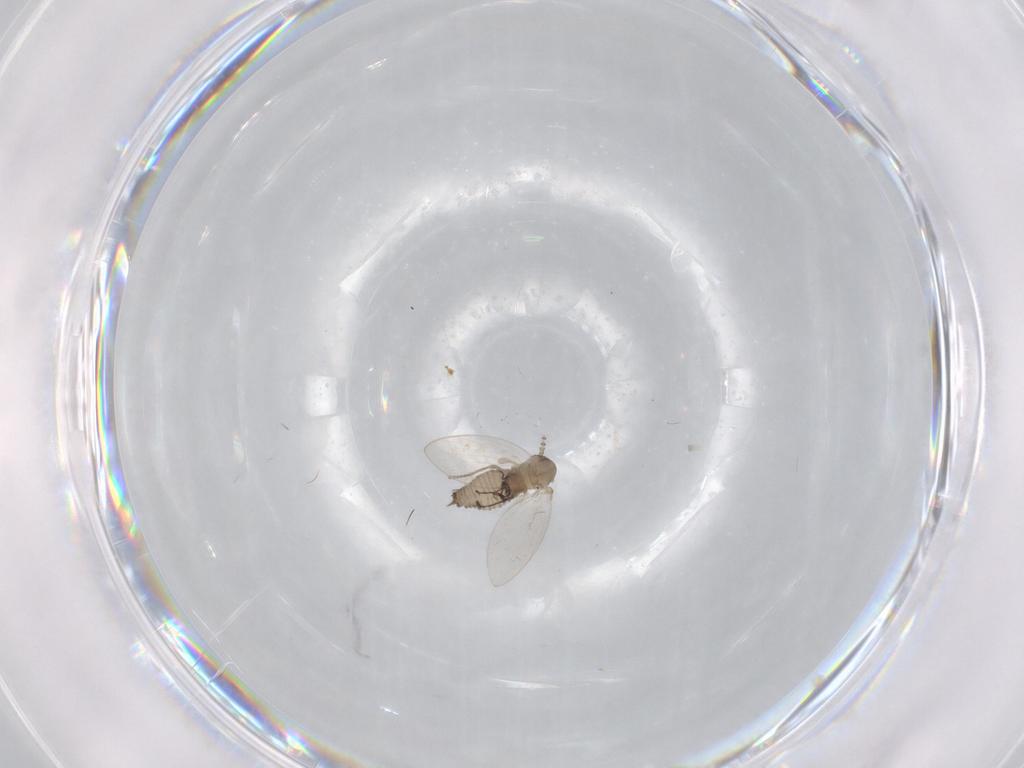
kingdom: Animalia
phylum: Arthropoda
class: Insecta
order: Diptera
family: Psychodidae
